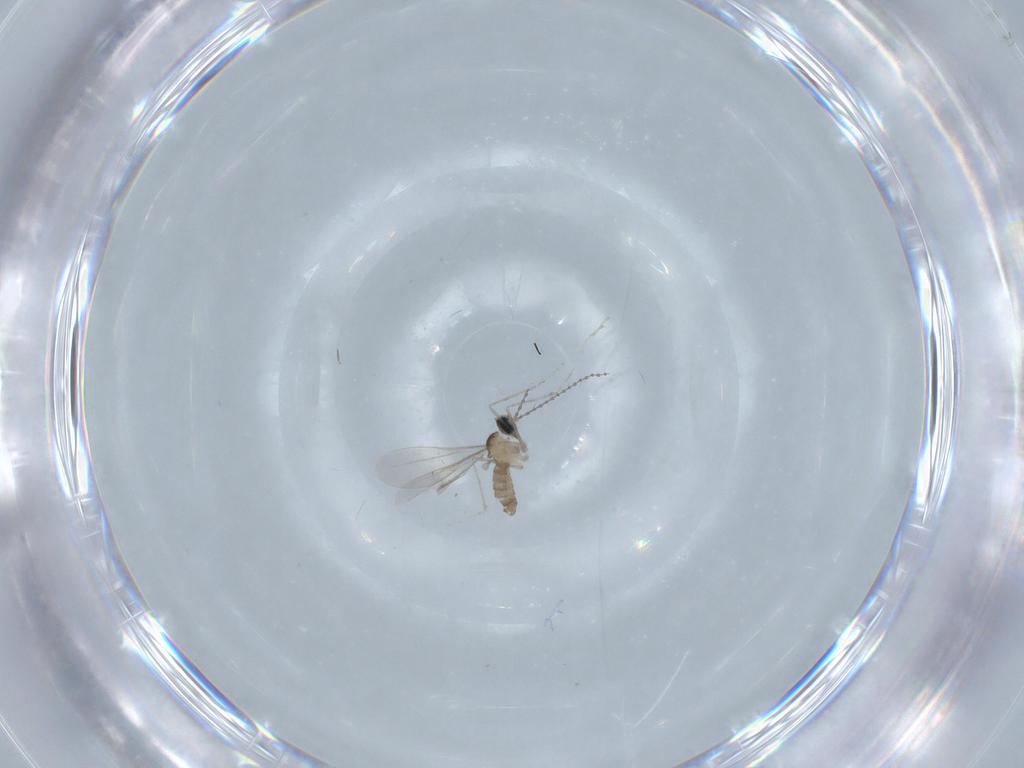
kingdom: Animalia
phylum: Arthropoda
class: Insecta
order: Diptera
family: Cecidomyiidae
